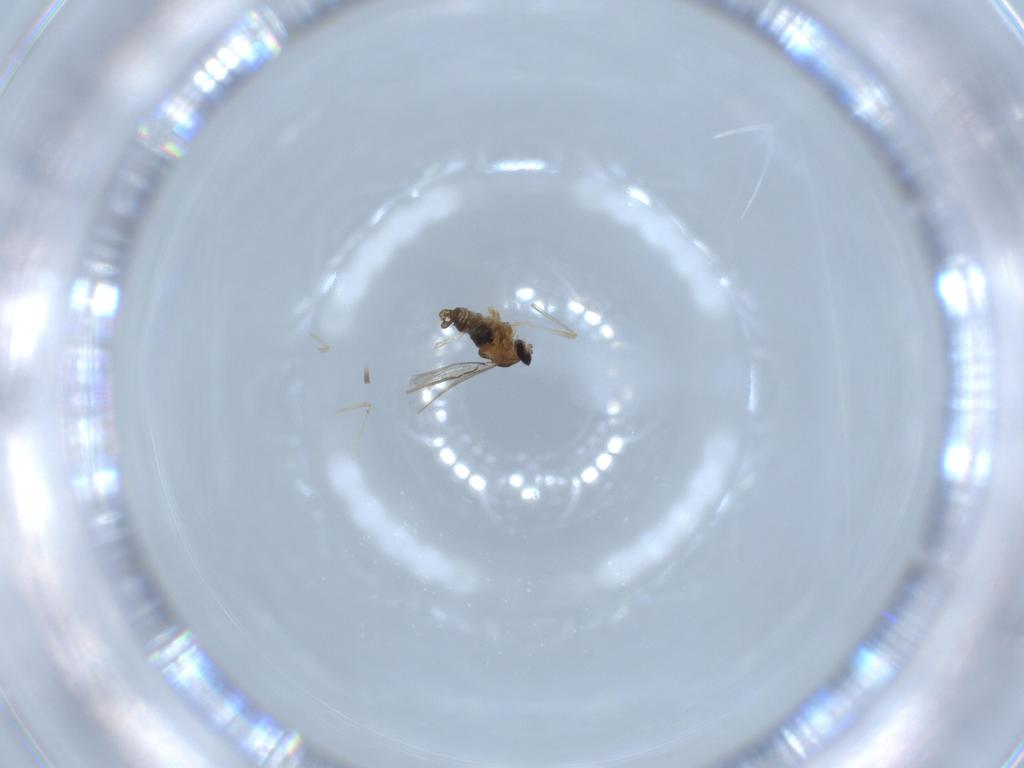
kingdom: Animalia
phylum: Arthropoda
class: Insecta
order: Diptera
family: Cecidomyiidae
